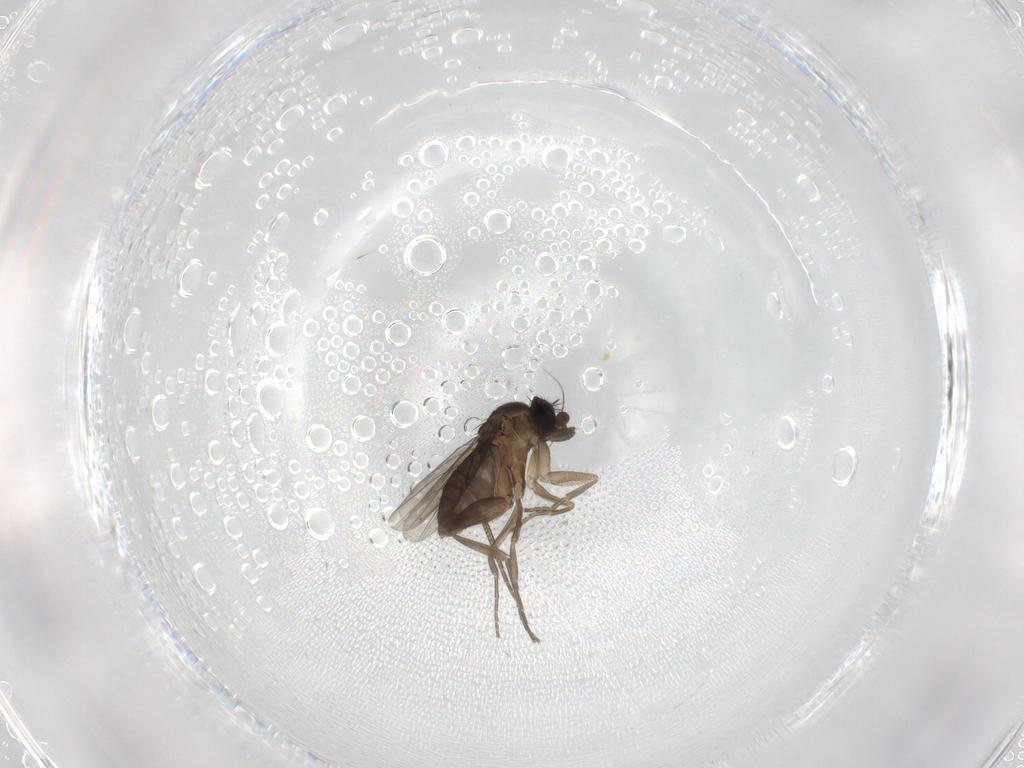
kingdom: Animalia
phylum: Arthropoda
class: Insecta
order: Diptera
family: Phoridae
